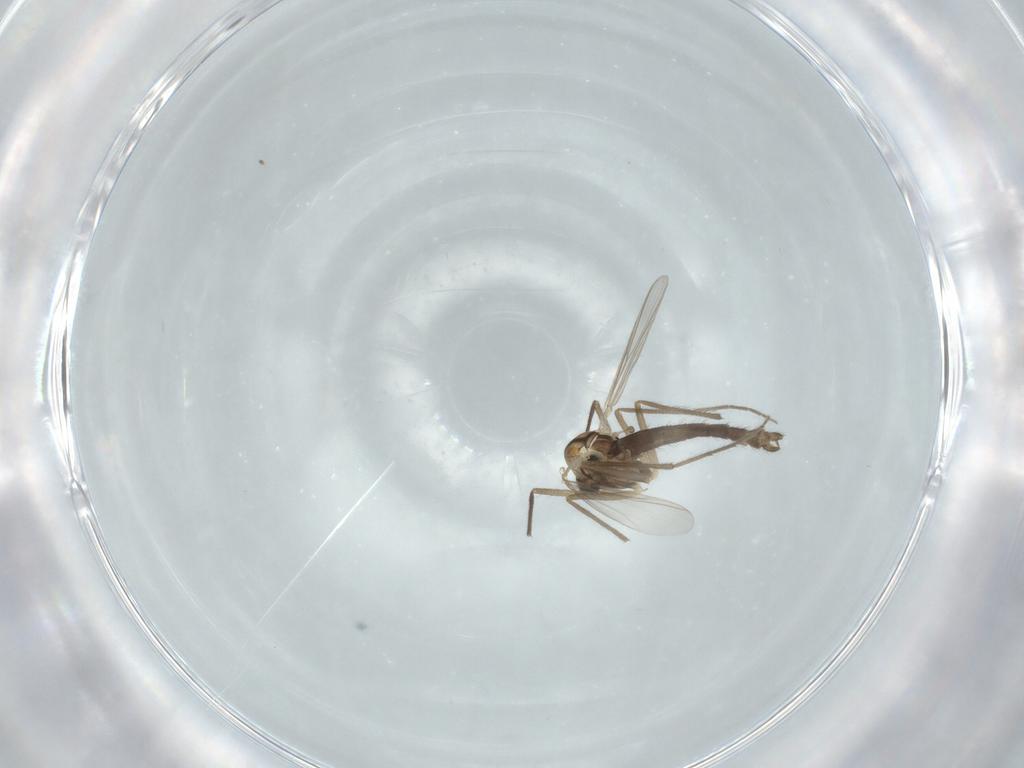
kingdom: Animalia
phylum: Arthropoda
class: Insecta
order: Diptera
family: Chironomidae
